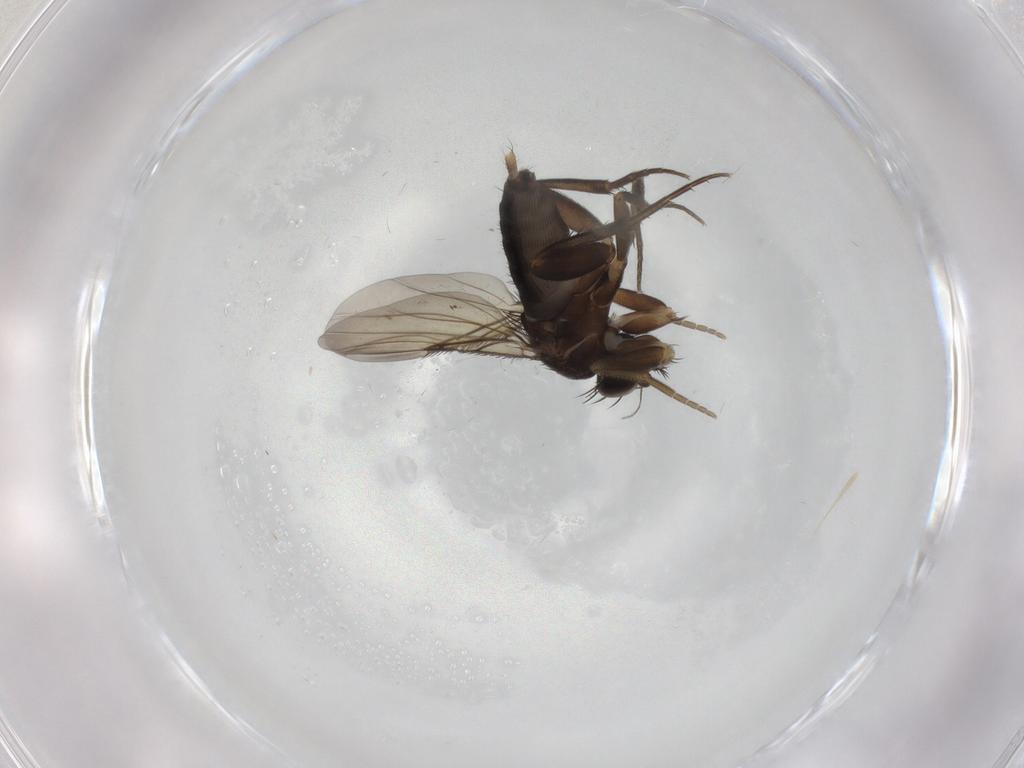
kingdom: Animalia
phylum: Arthropoda
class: Insecta
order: Diptera
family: Phoridae
